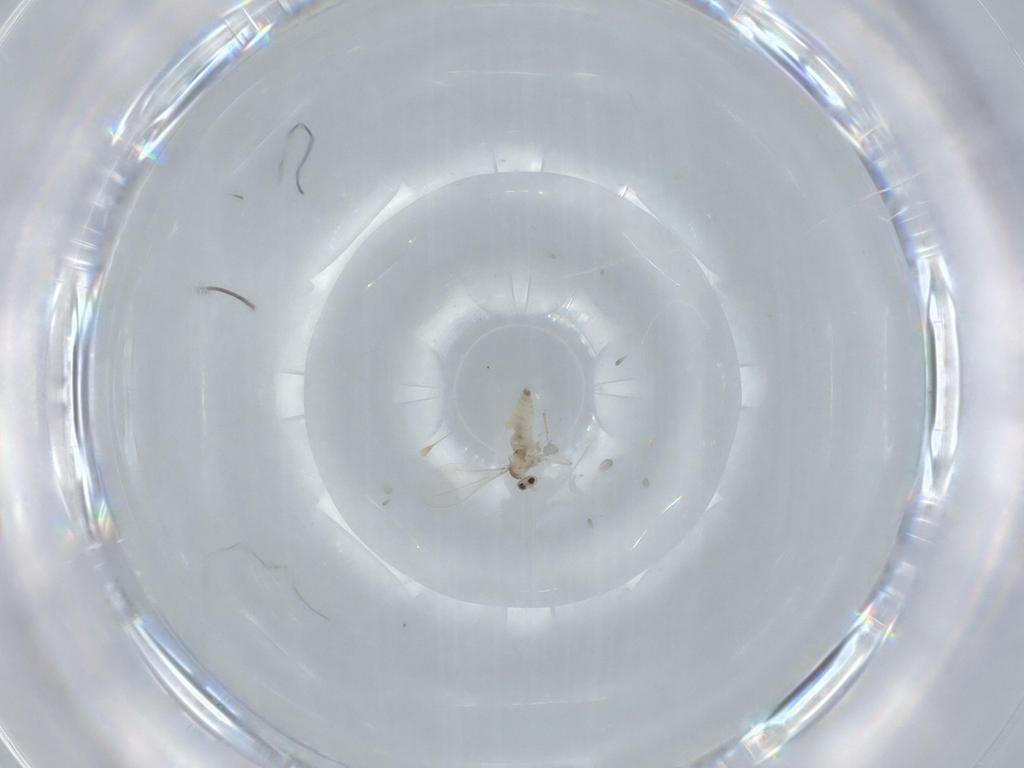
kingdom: Animalia
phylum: Arthropoda
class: Insecta
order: Diptera
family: Cecidomyiidae
